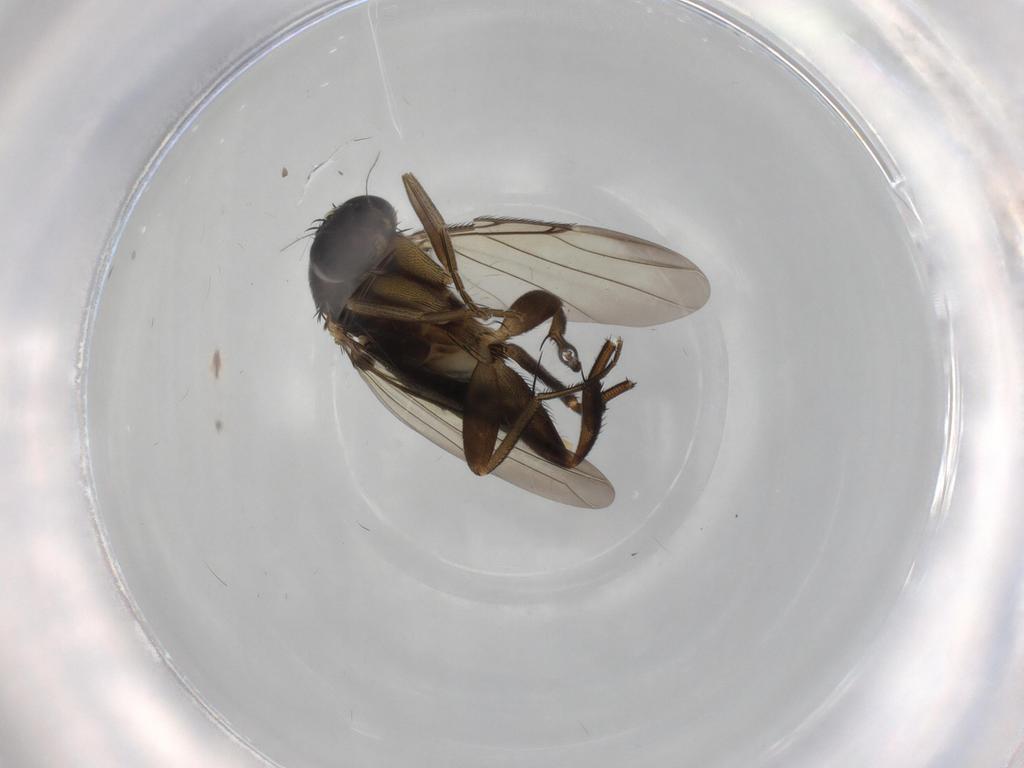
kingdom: Animalia
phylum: Arthropoda
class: Insecta
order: Diptera
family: Phoridae
